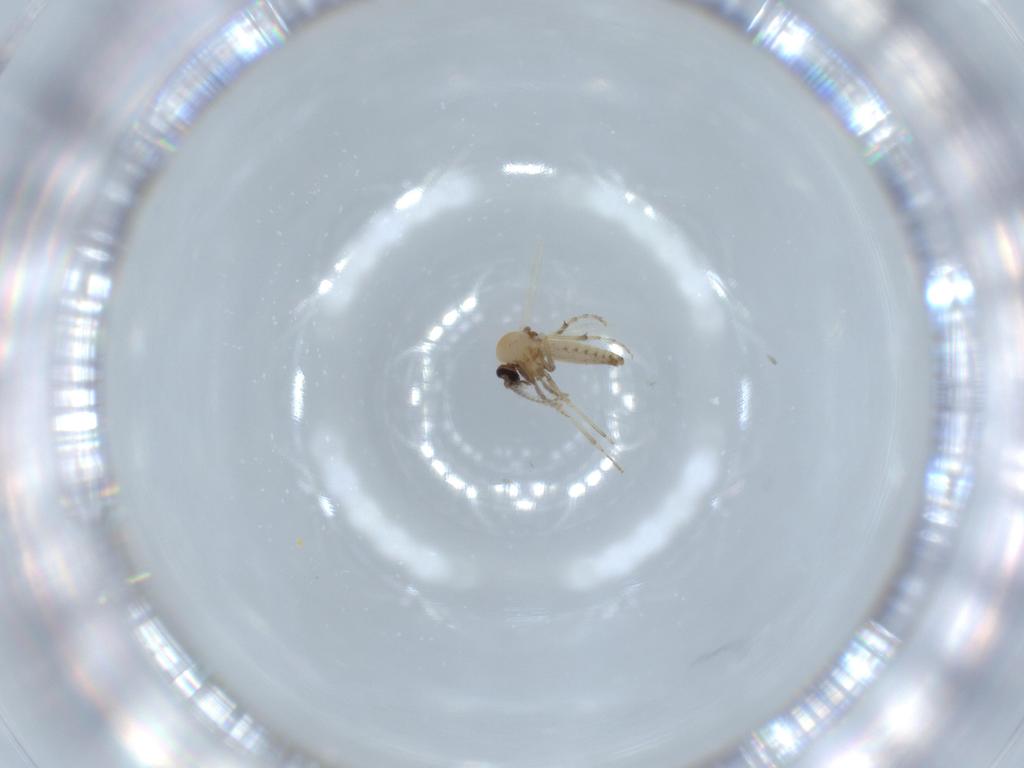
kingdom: Animalia
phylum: Arthropoda
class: Insecta
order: Diptera
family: Ceratopogonidae
